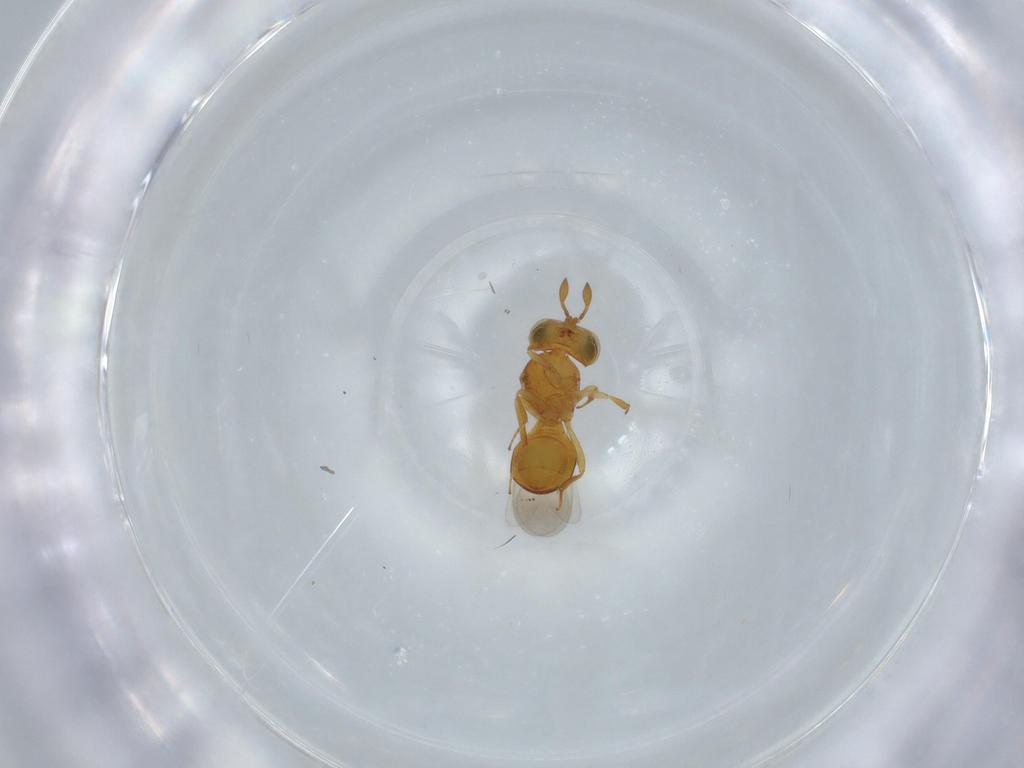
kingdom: Animalia
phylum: Arthropoda
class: Insecta
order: Hymenoptera
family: Scelionidae
